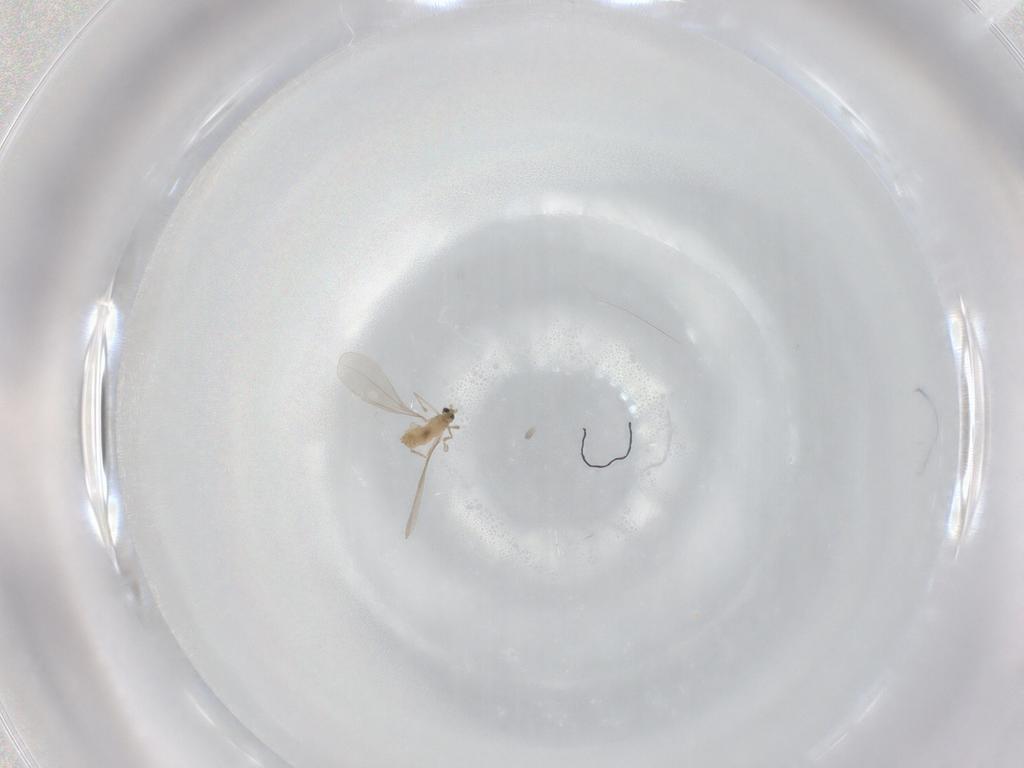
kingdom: Animalia
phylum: Arthropoda
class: Insecta
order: Diptera
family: Cecidomyiidae
